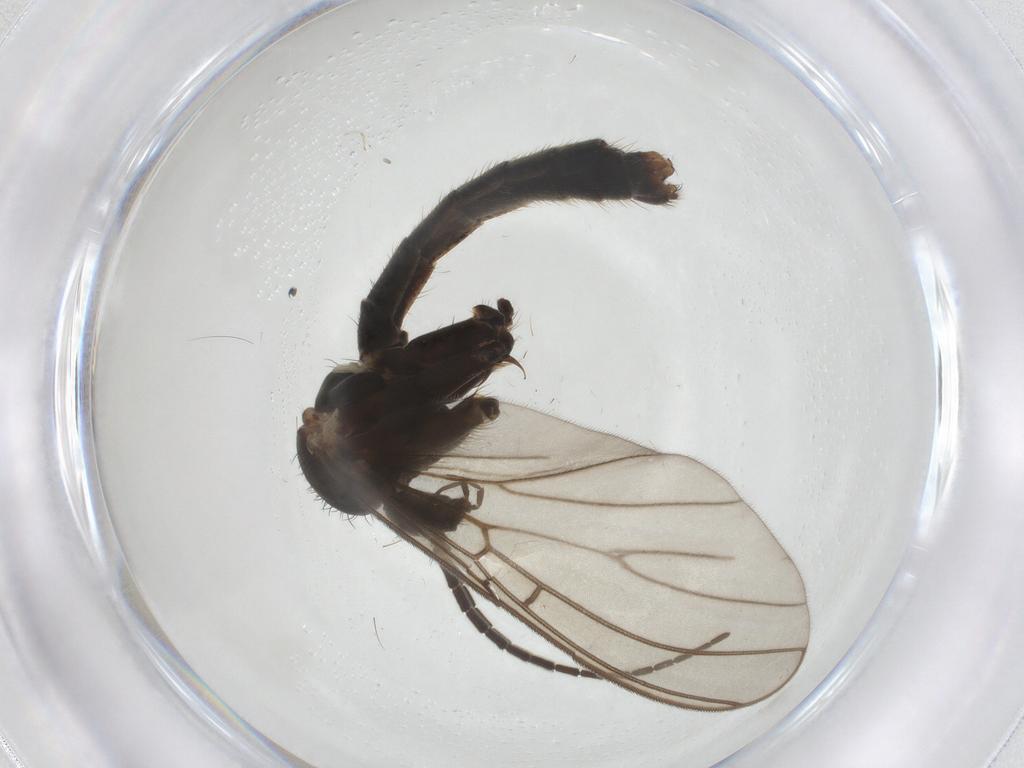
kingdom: Animalia
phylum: Arthropoda
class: Insecta
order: Diptera
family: Mycetophilidae
